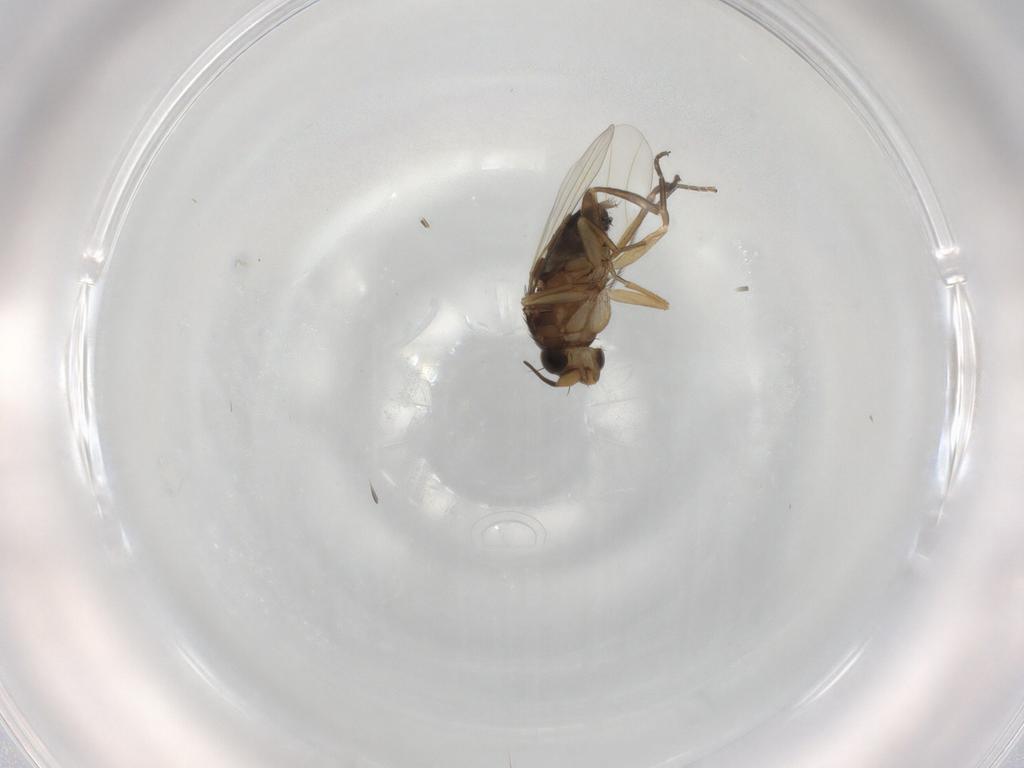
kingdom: Animalia
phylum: Arthropoda
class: Insecta
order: Diptera
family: Phoridae
